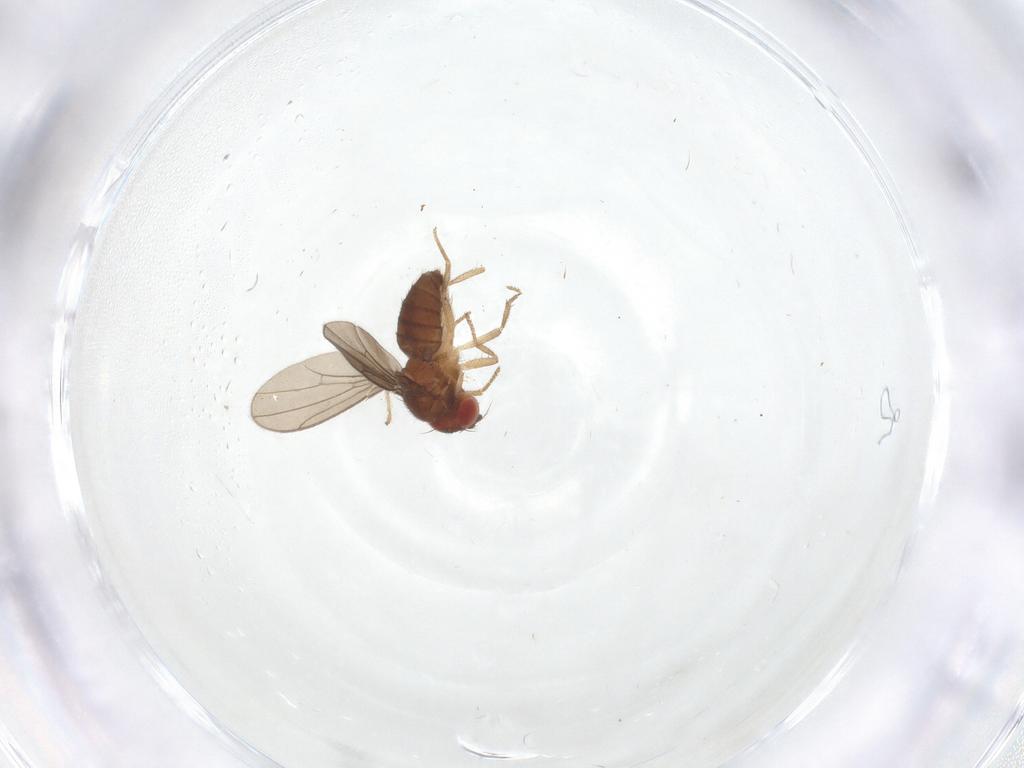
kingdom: Animalia
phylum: Arthropoda
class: Insecta
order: Diptera
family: Drosophilidae
